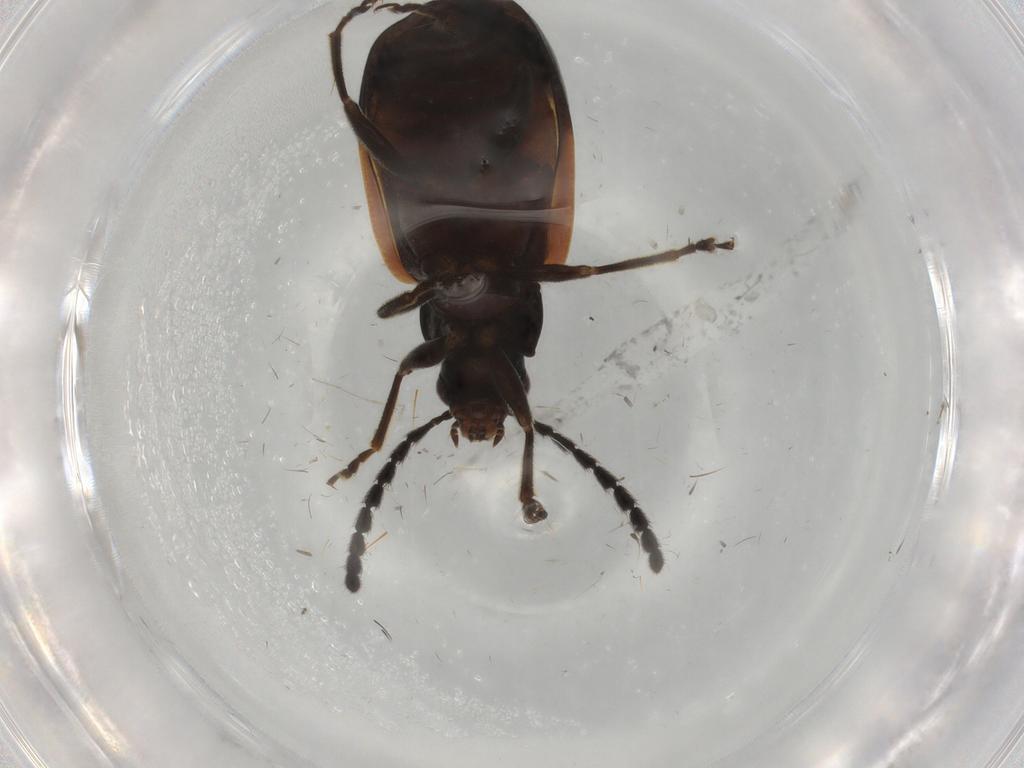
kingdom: Animalia
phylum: Arthropoda
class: Insecta
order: Coleoptera
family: Chrysomelidae
